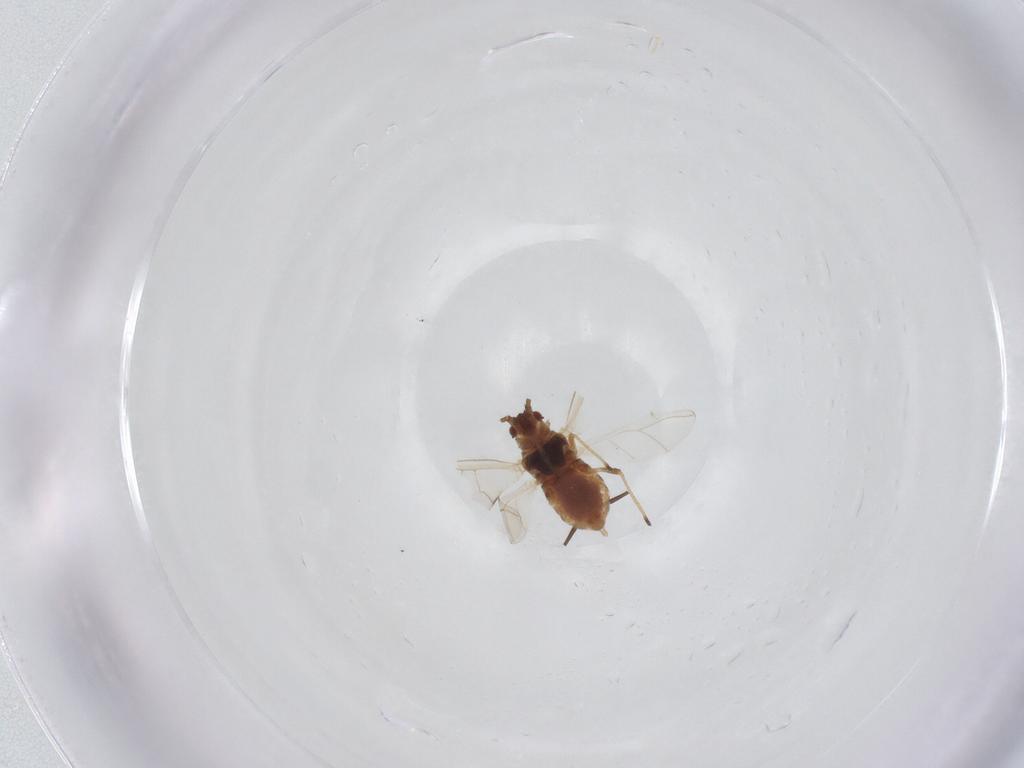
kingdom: Animalia
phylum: Arthropoda
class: Insecta
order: Hemiptera
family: Aphididae
